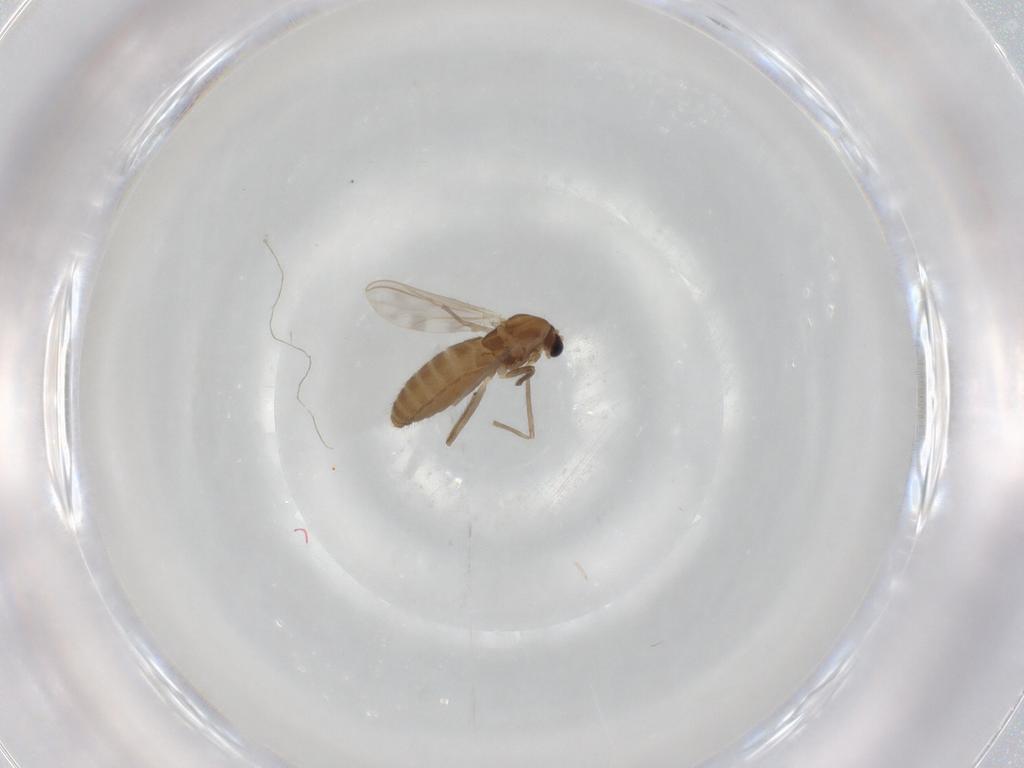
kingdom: Animalia
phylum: Arthropoda
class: Insecta
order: Diptera
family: Chironomidae
